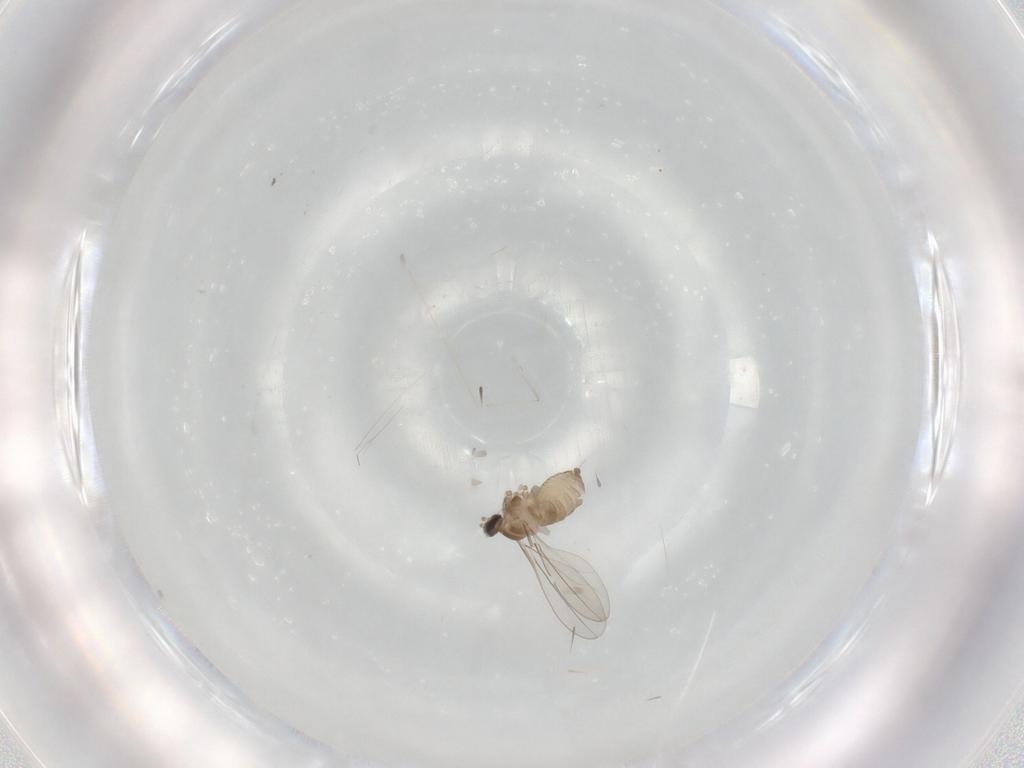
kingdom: Animalia
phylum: Arthropoda
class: Insecta
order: Diptera
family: Cecidomyiidae
